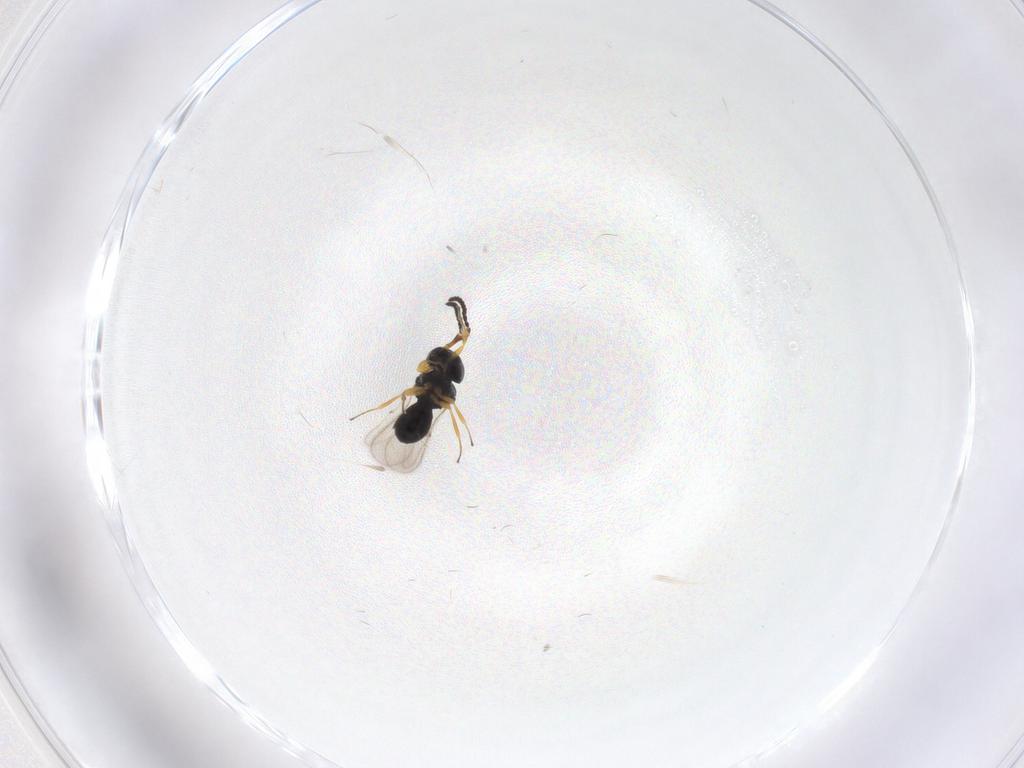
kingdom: Animalia
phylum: Arthropoda
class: Insecta
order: Hymenoptera
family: Scelionidae
